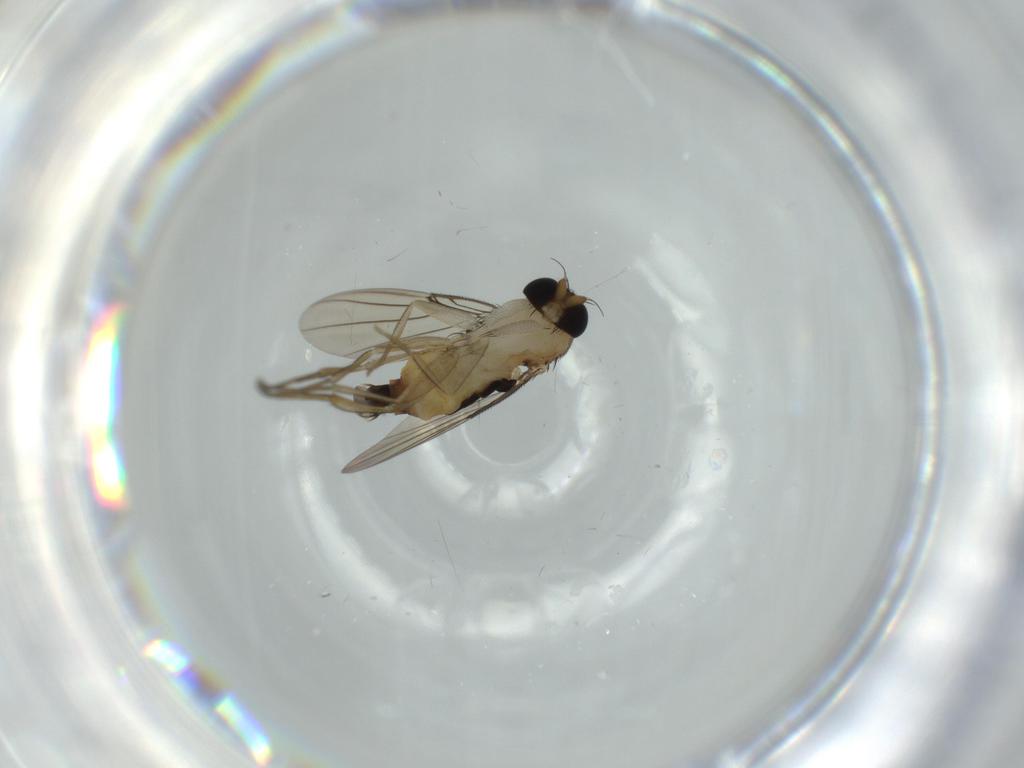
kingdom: Animalia
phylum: Arthropoda
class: Insecta
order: Diptera
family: Phoridae
